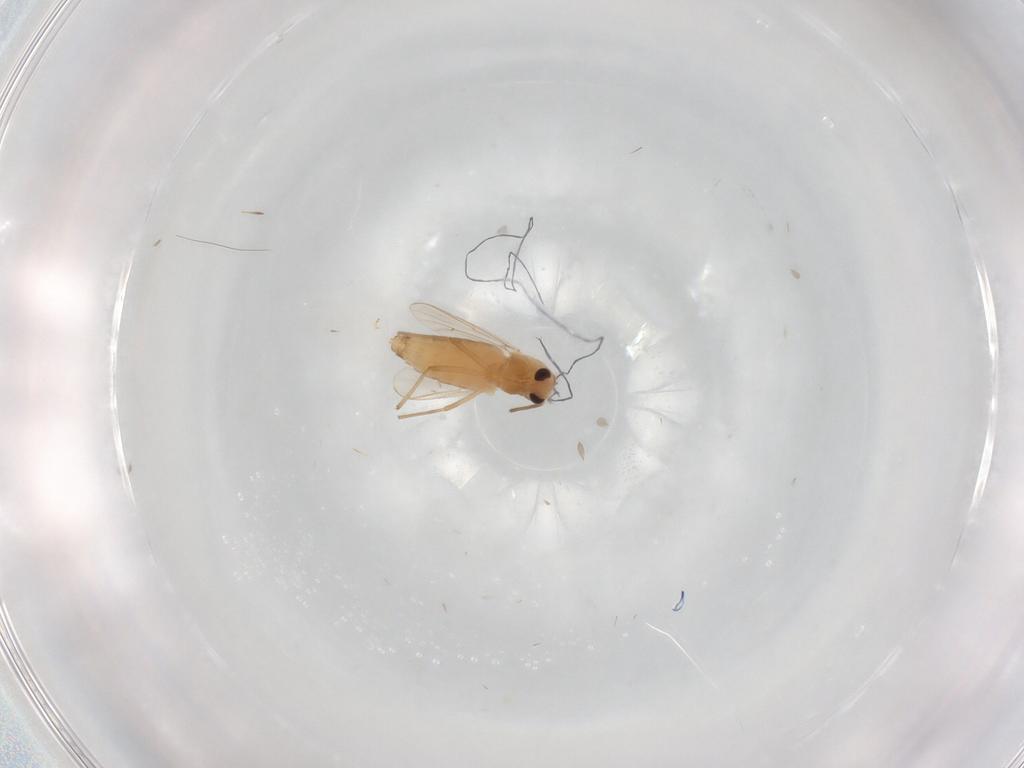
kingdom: Animalia
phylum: Arthropoda
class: Insecta
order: Diptera
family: Chironomidae
